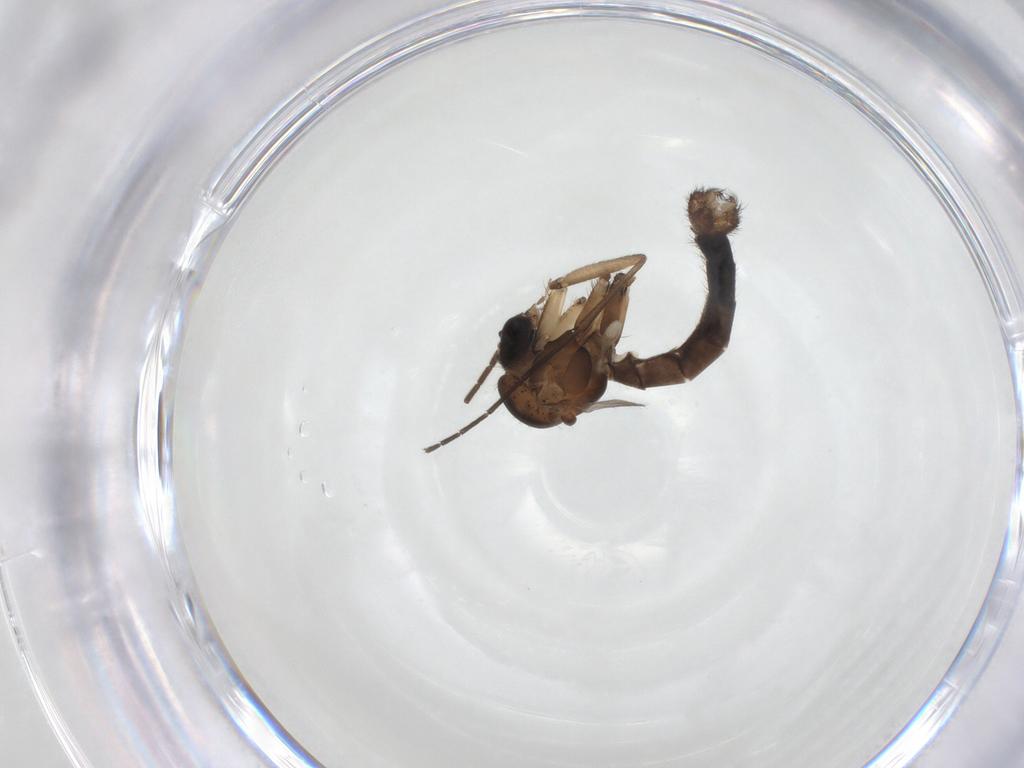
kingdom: Animalia
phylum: Arthropoda
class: Insecta
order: Diptera
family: Mycetophilidae
